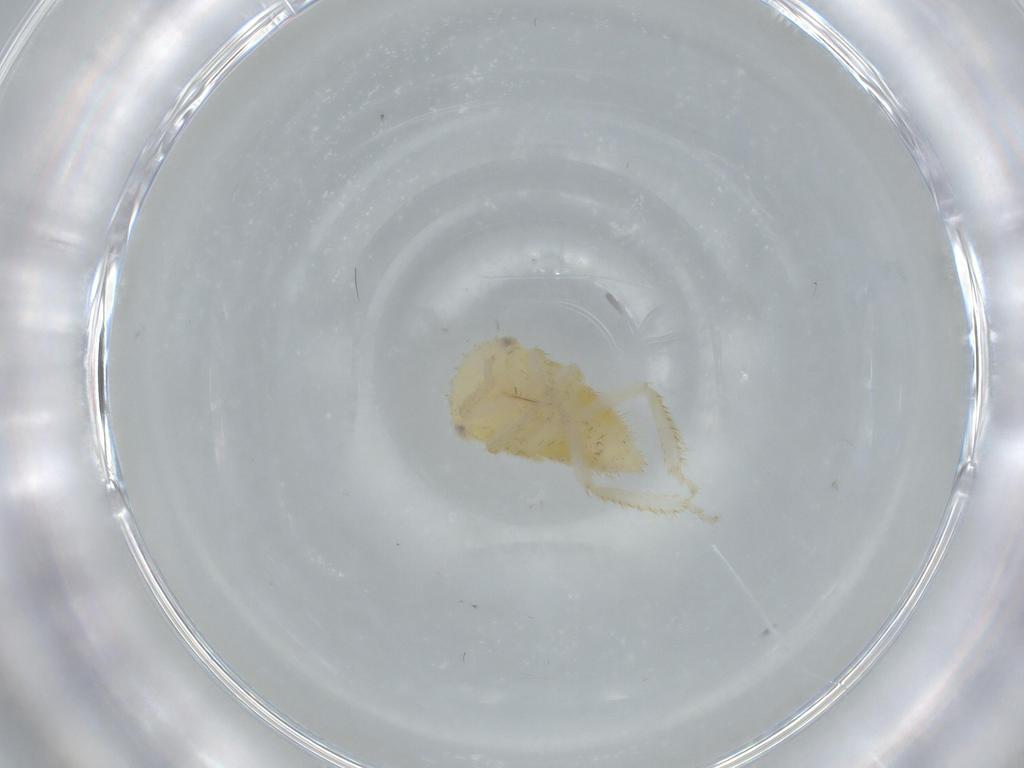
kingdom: Animalia
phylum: Arthropoda
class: Insecta
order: Hemiptera
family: Cicadellidae
